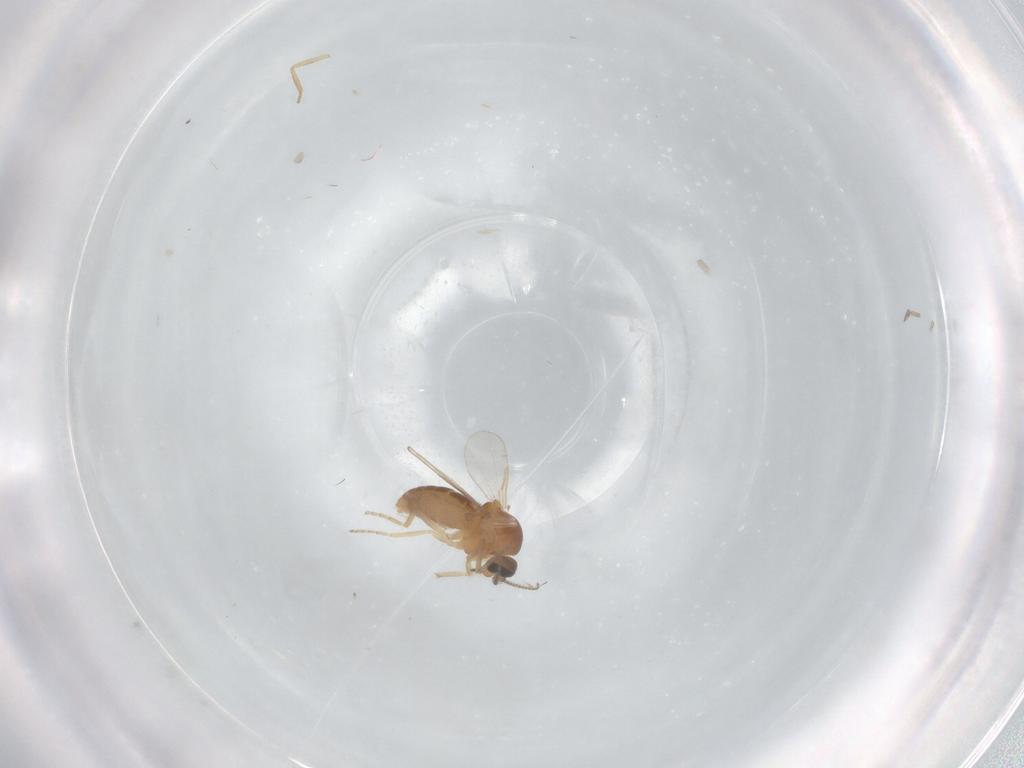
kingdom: Animalia
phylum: Arthropoda
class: Insecta
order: Diptera
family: Ceratopogonidae
